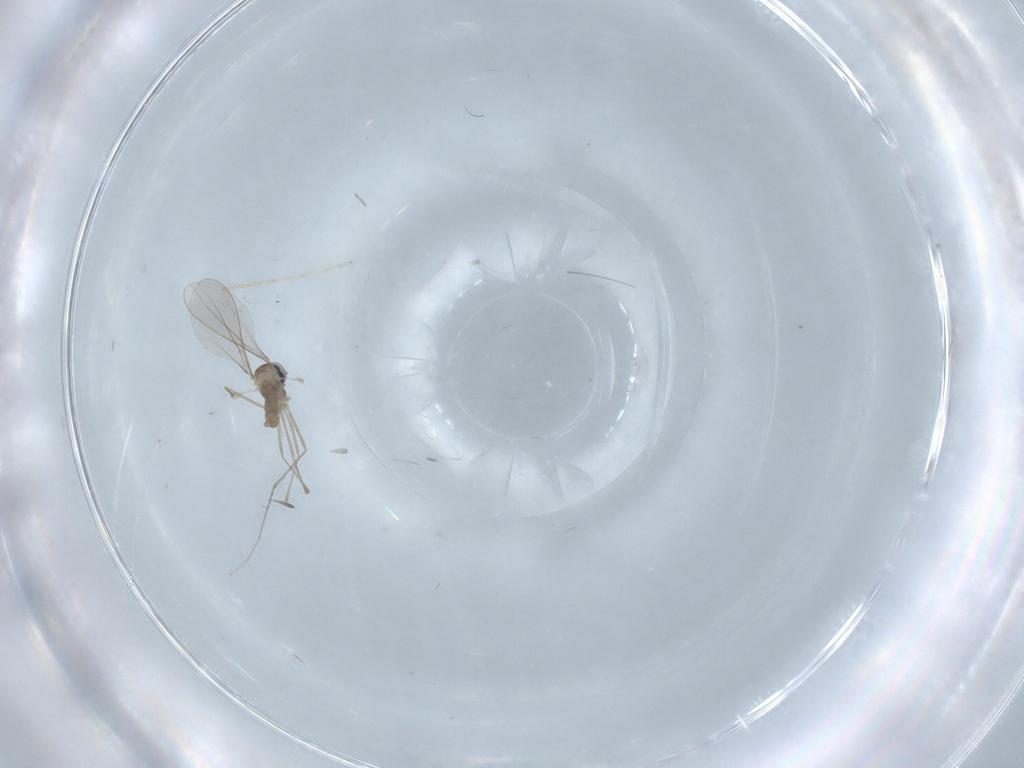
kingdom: Animalia
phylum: Arthropoda
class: Insecta
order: Diptera
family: Cecidomyiidae
